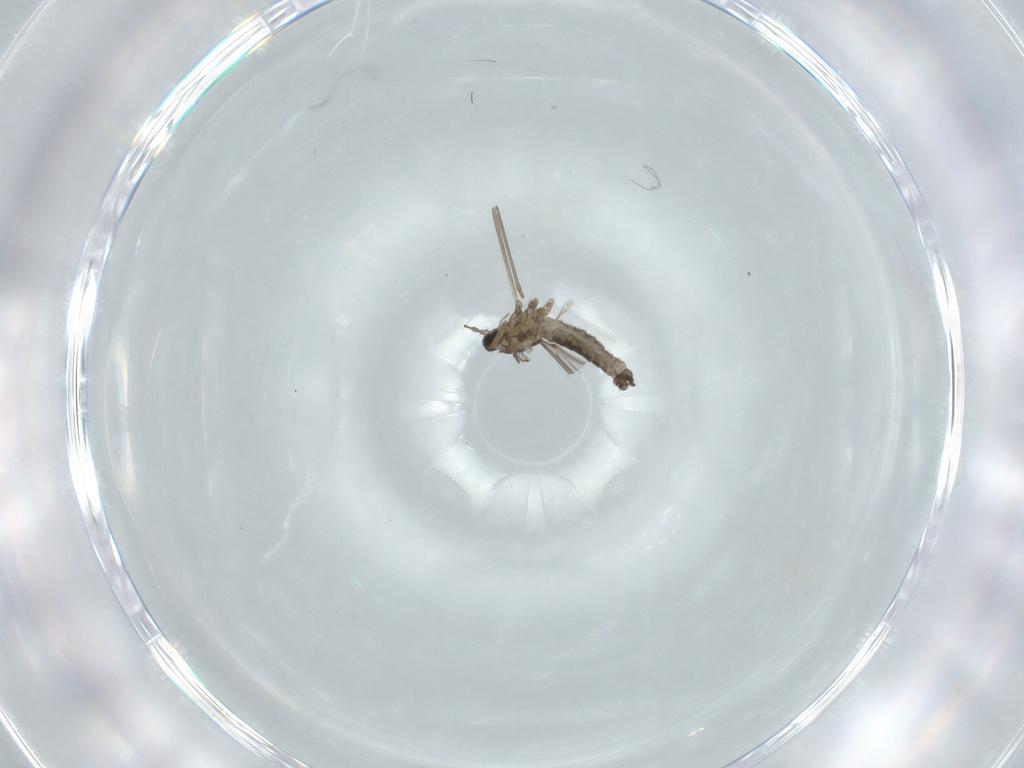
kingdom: Animalia
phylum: Arthropoda
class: Insecta
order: Diptera
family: Cecidomyiidae
